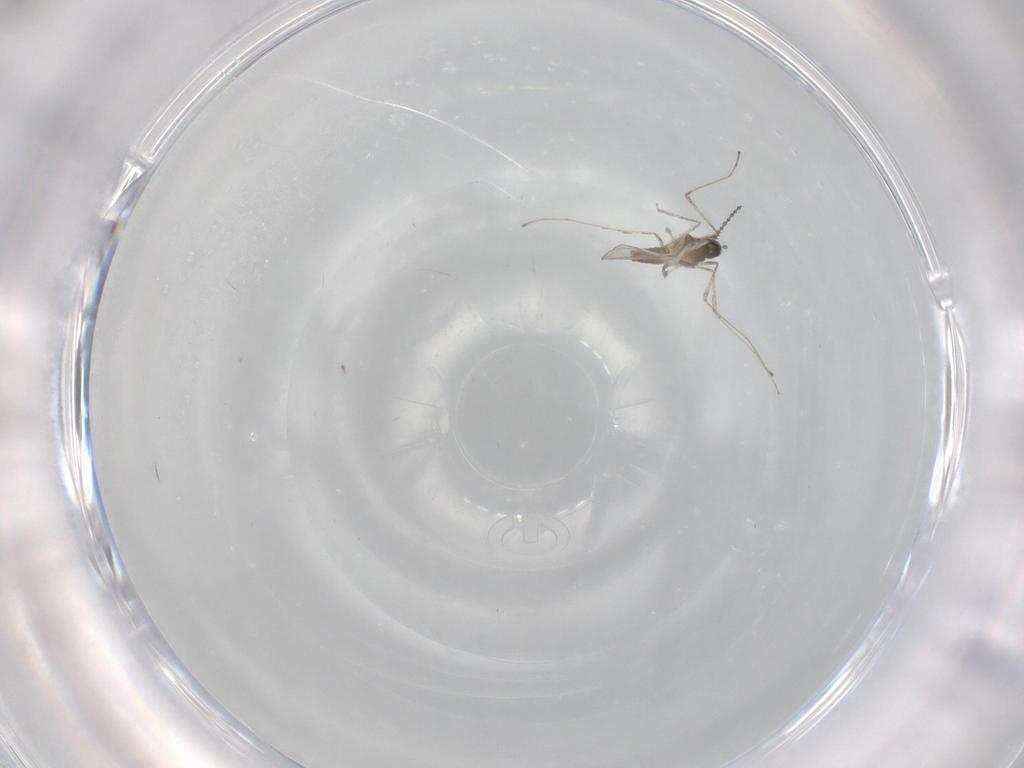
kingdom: Animalia
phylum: Arthropoda
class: Insecta
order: Diptera
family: Cecidomyiidae
